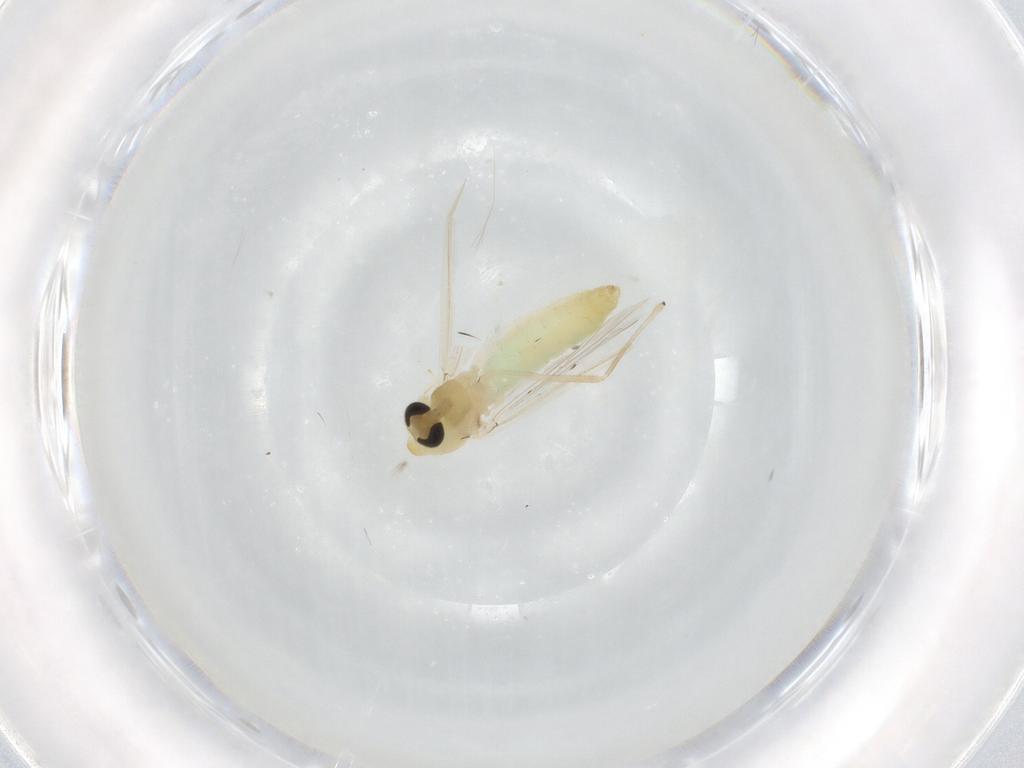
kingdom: Animalia
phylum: Arthropoda
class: Insecta
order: Diptera
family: Chironomidae
